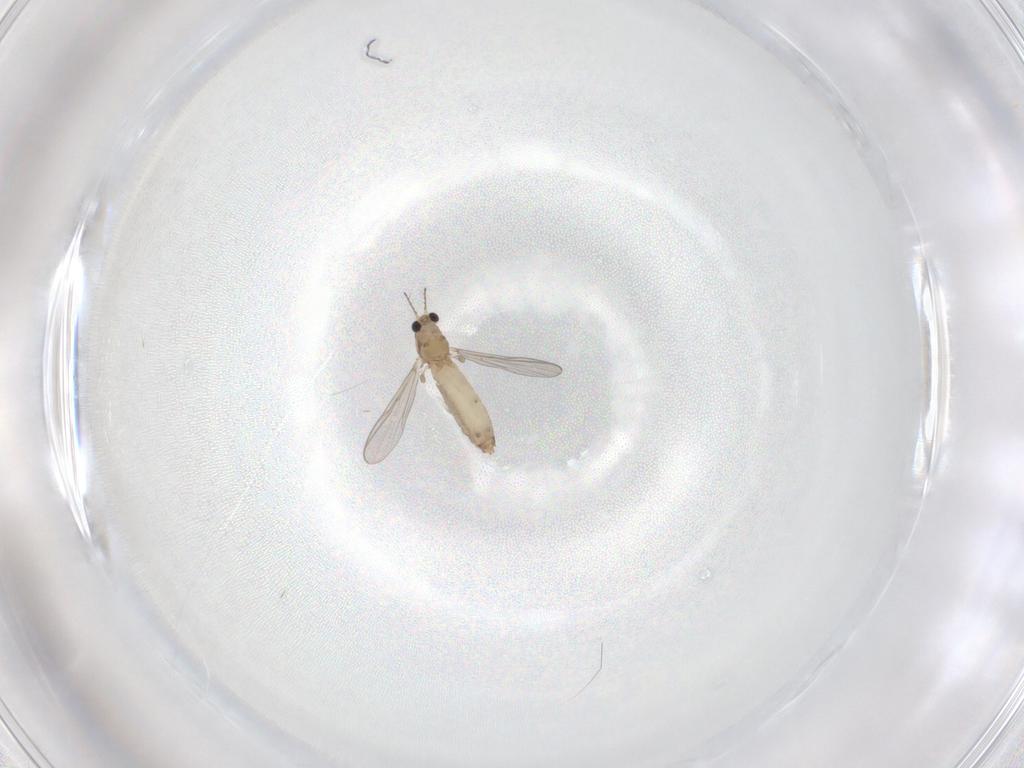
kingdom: Animalia
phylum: Arthropoda
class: Insecta
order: Diptera
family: Chironomidae
